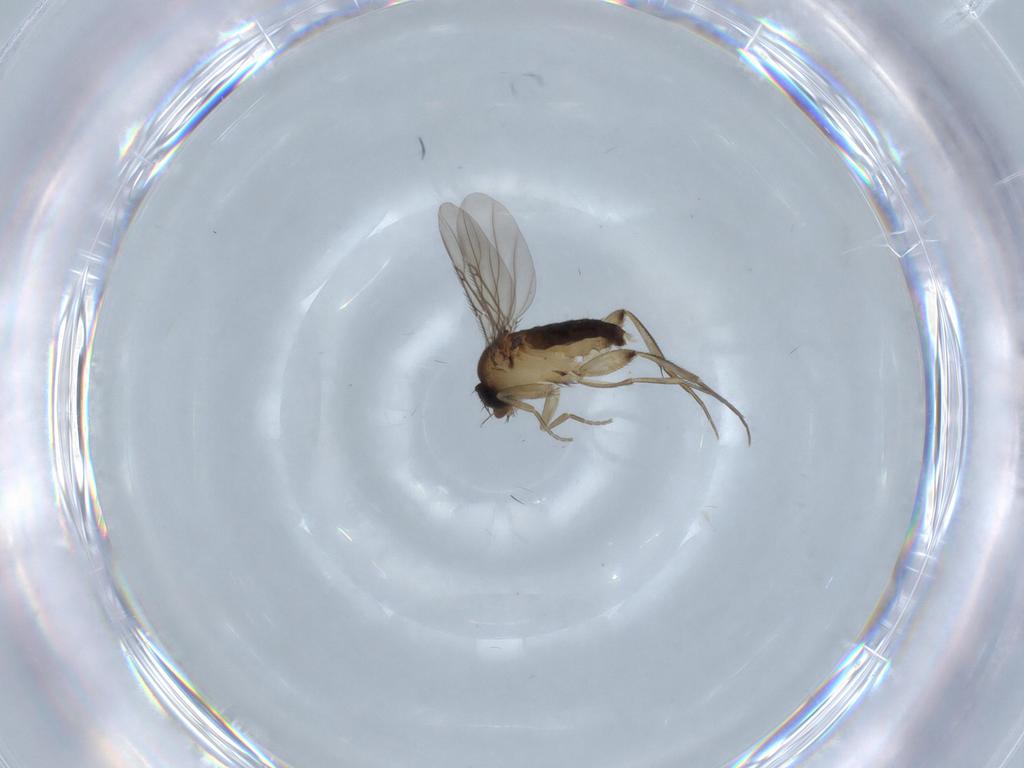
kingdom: Animalia
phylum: Arthropoda
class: Insecta
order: Diptera
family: Phoridae
